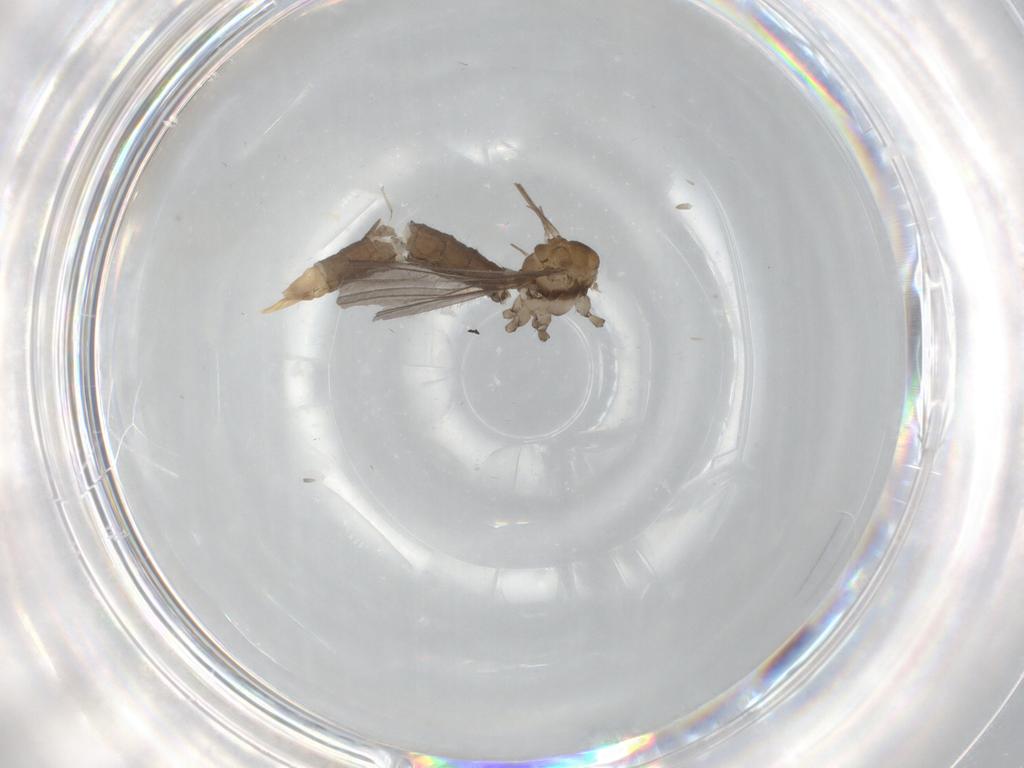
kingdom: Animalia
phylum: Arthropoda
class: Insecta
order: Diptera
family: Limoniidae
